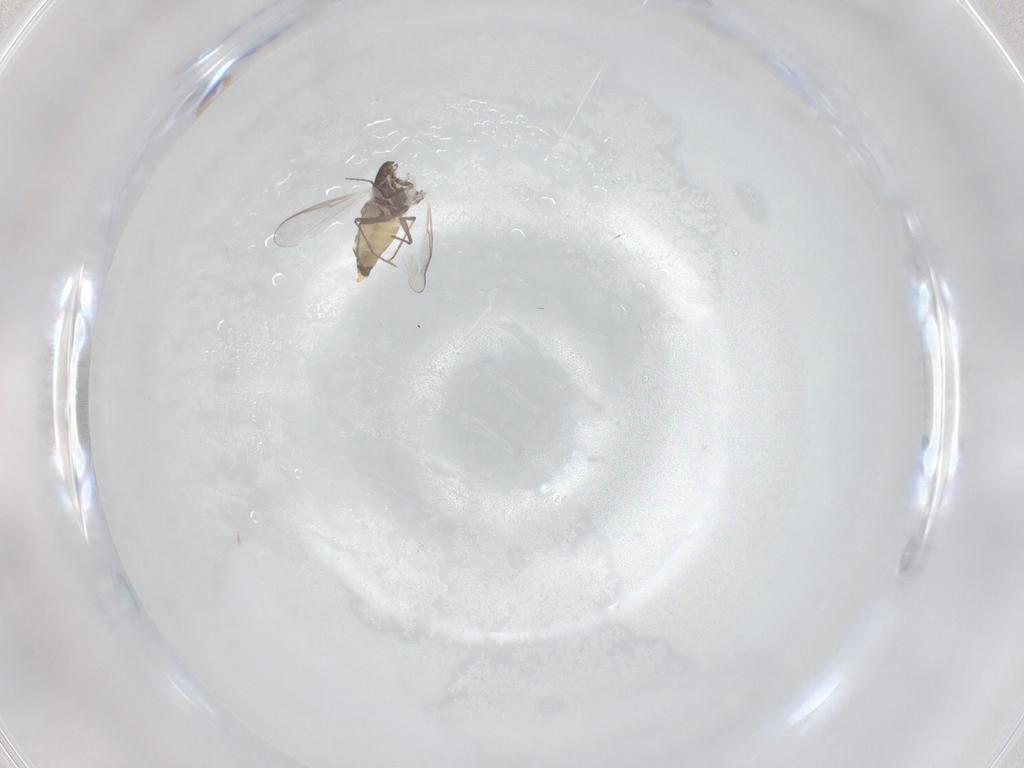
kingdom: Animalia
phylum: Arthropoda
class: Insecta
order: Diptera
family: Chironomidae
